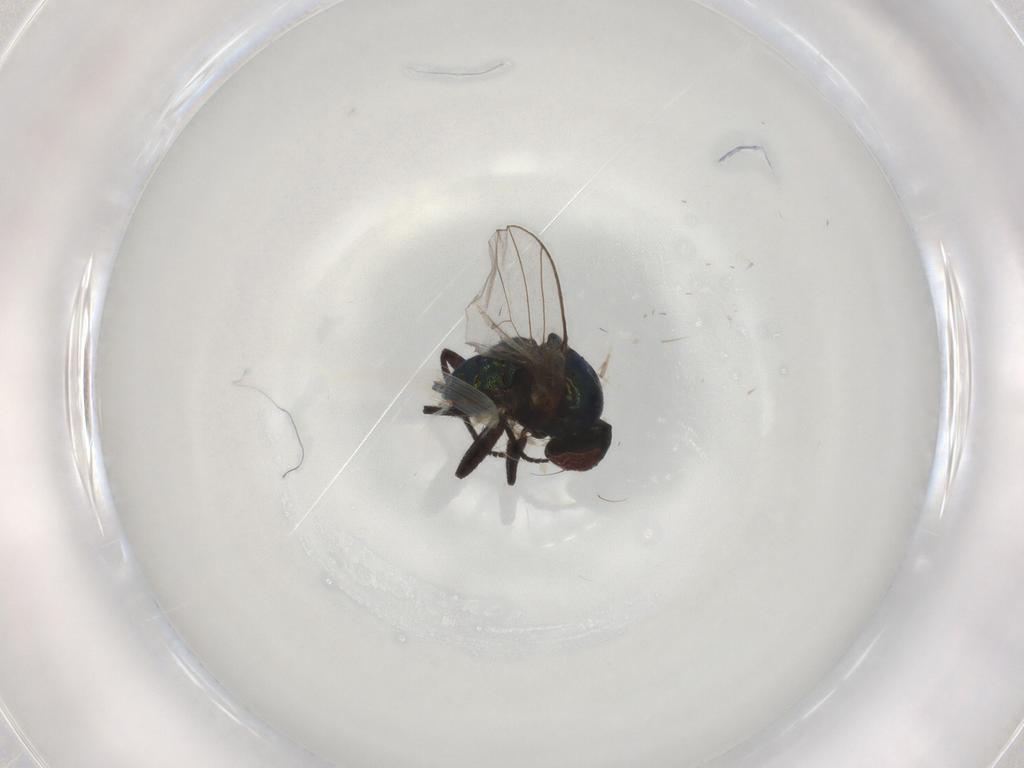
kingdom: Animalia
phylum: Arthropoda
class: Insecta
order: Diptera
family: Agromyzidae
